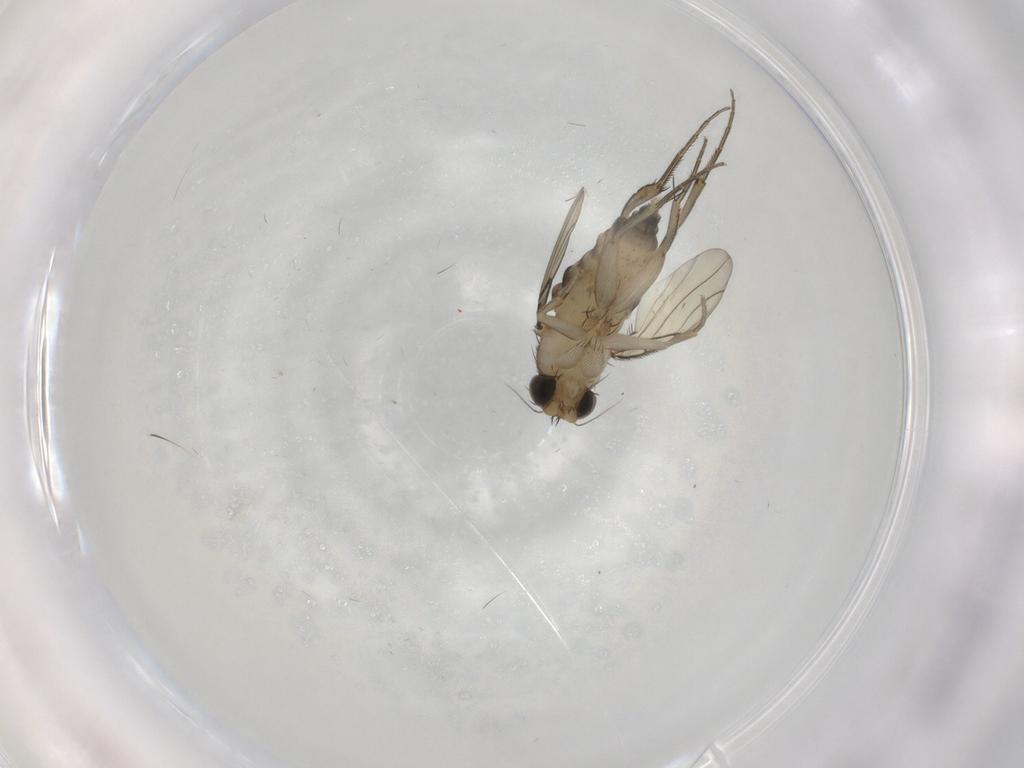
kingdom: Animalia
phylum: Arthropoda
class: Insecta
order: Diptera
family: Phoridae
